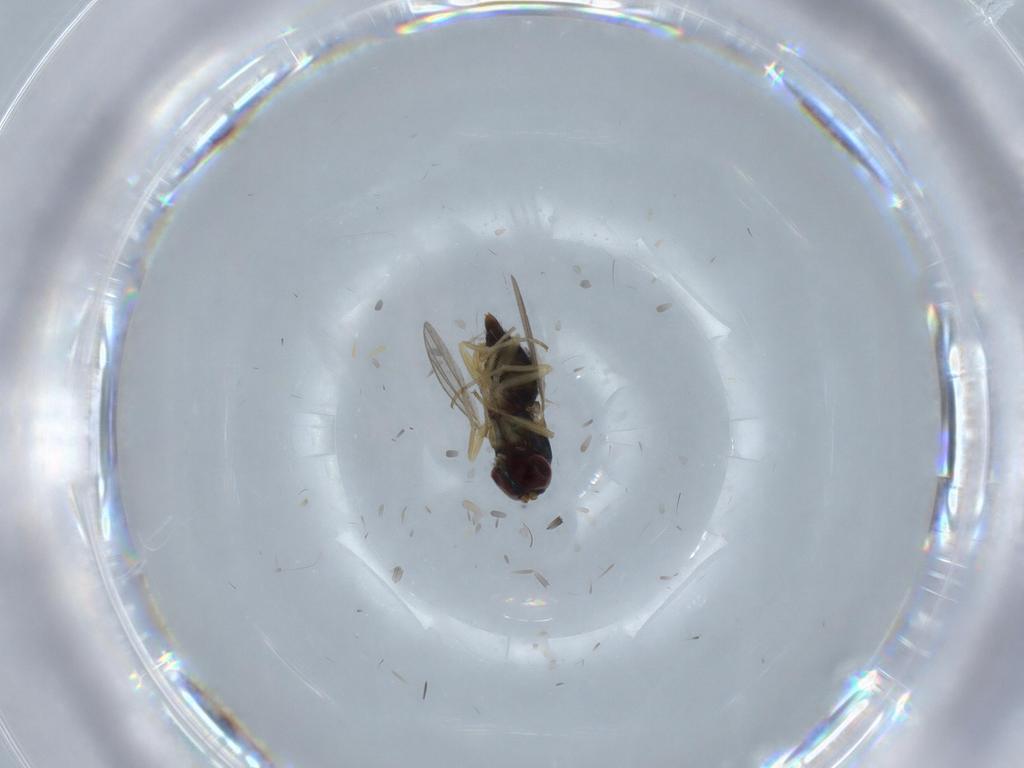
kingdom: Animalia
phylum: Arthropoda
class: Insecta
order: Diptera
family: Dolichopodidae
